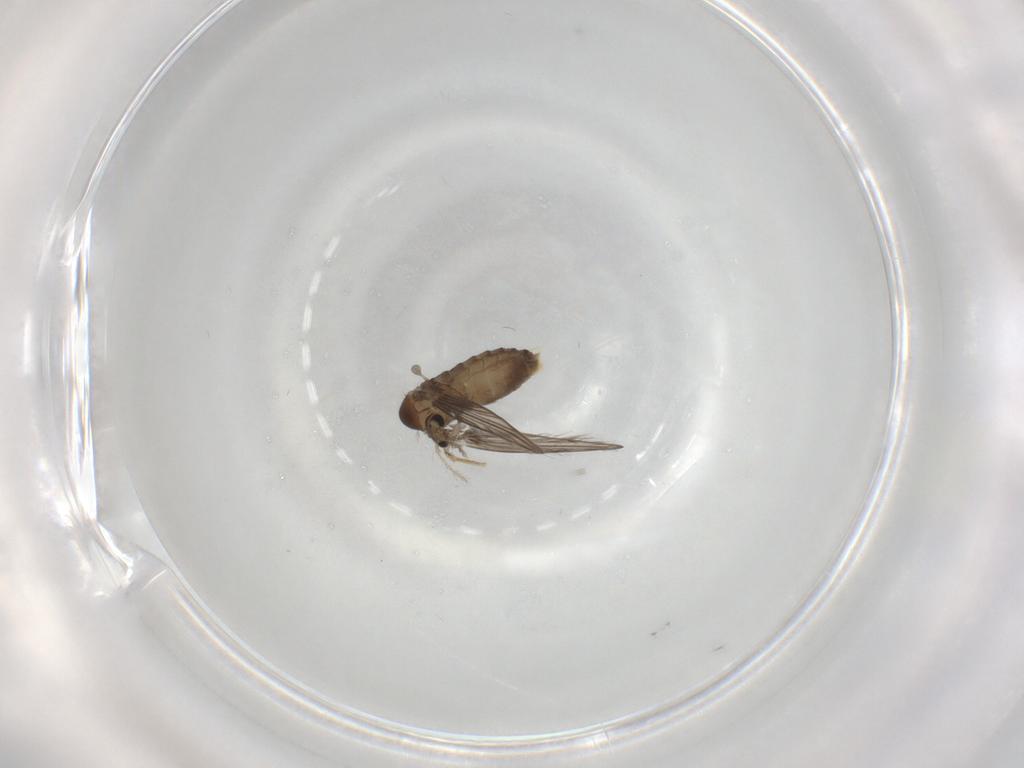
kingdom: Animalia
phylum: Arthropoda
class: Insecta
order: Diptera
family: Psychodidae
